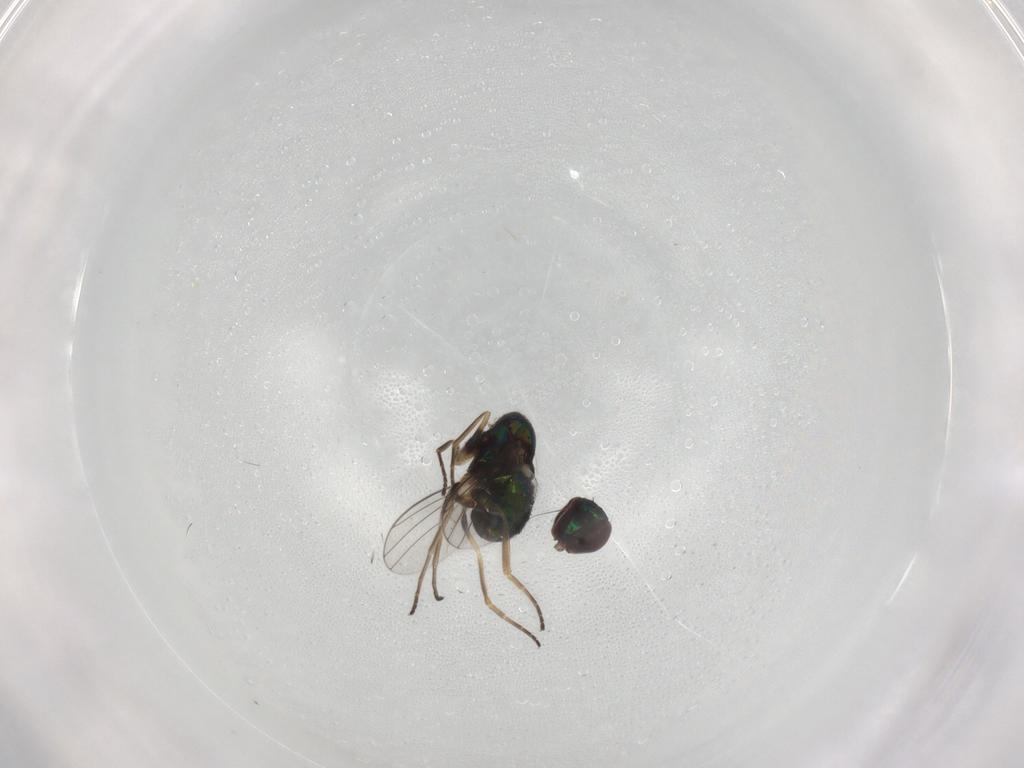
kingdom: Animalia
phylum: Arthropoda
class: Insecta
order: Diptera
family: Dolichopodidae
